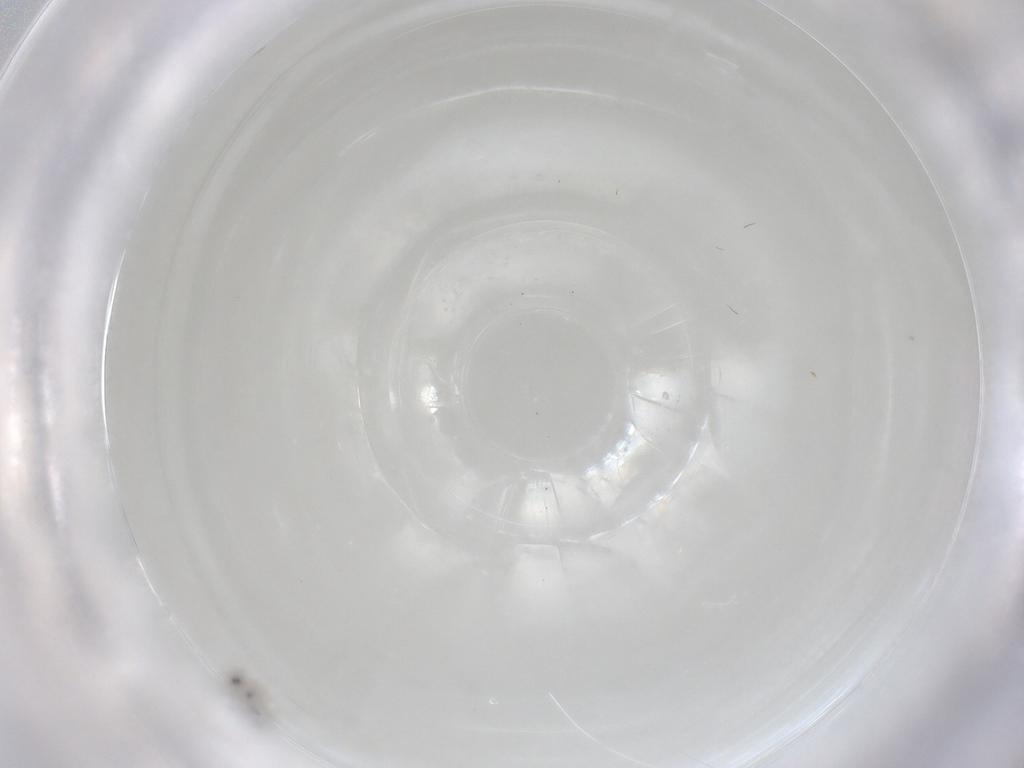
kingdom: Animalia
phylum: Arthropoda
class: Insecta
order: Hymenoptera
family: Mymaridae
